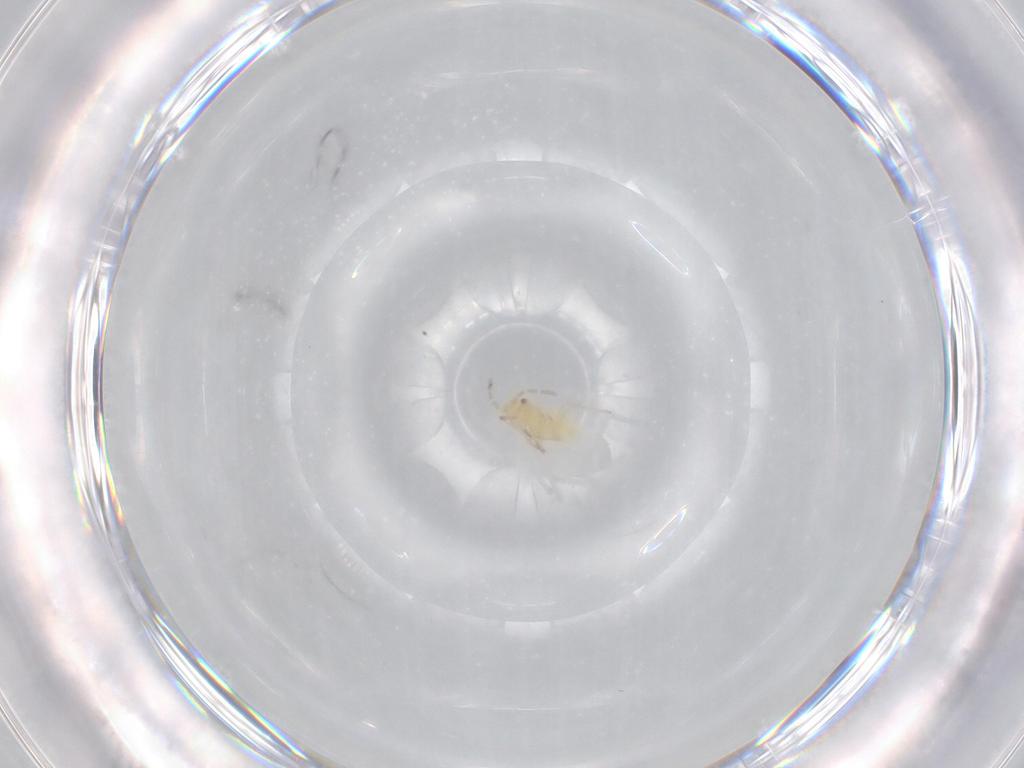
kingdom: Animalia
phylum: Arthropoda
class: Insecta
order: Hemiptera
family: Miridae
